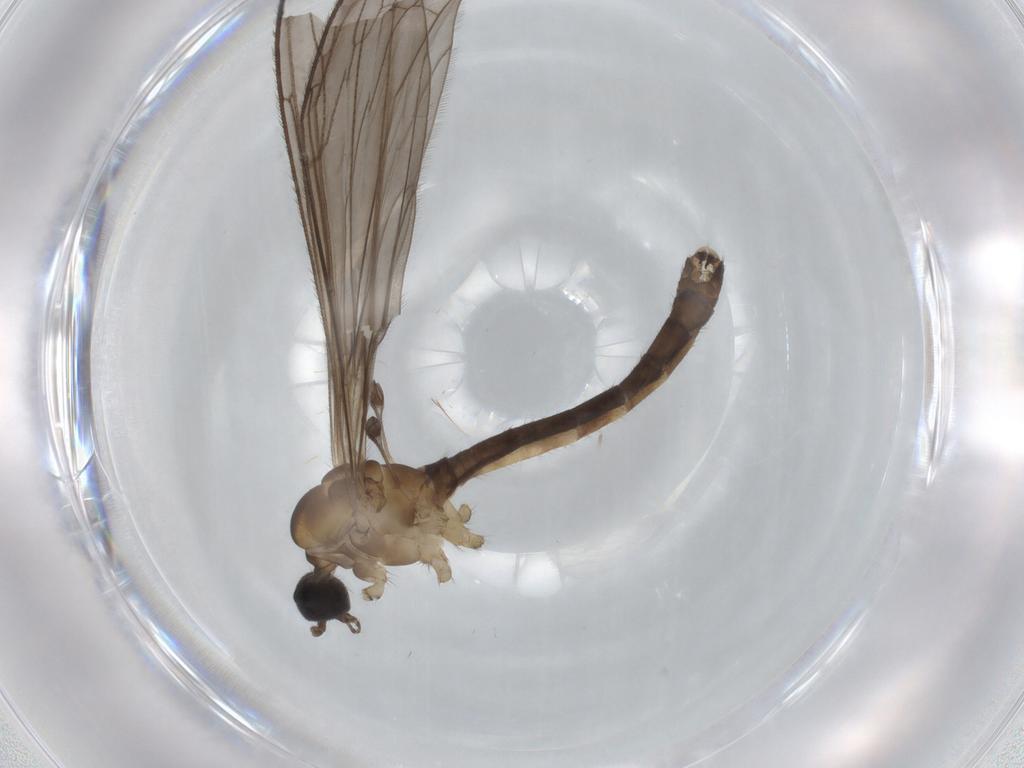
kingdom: Animalia
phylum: Arthropoda
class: Insecta
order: Diptera
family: Limoniidae
